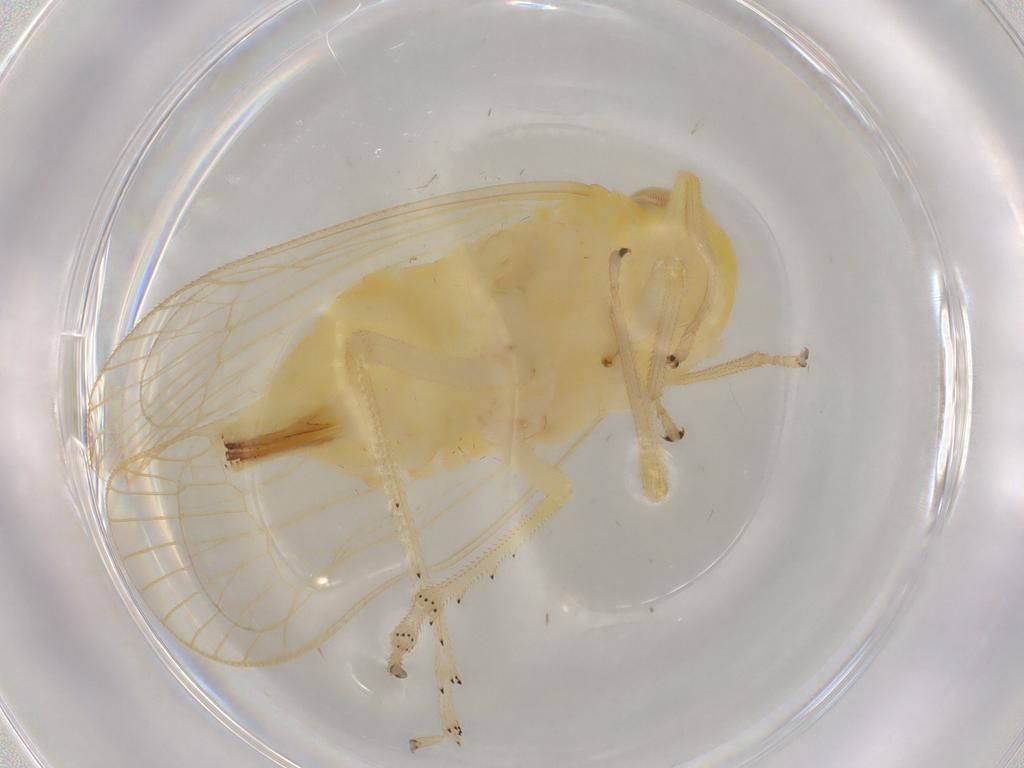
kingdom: Animalia
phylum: Arthropoda
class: Insecta
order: Hemiptera
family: Tropiduchidae
